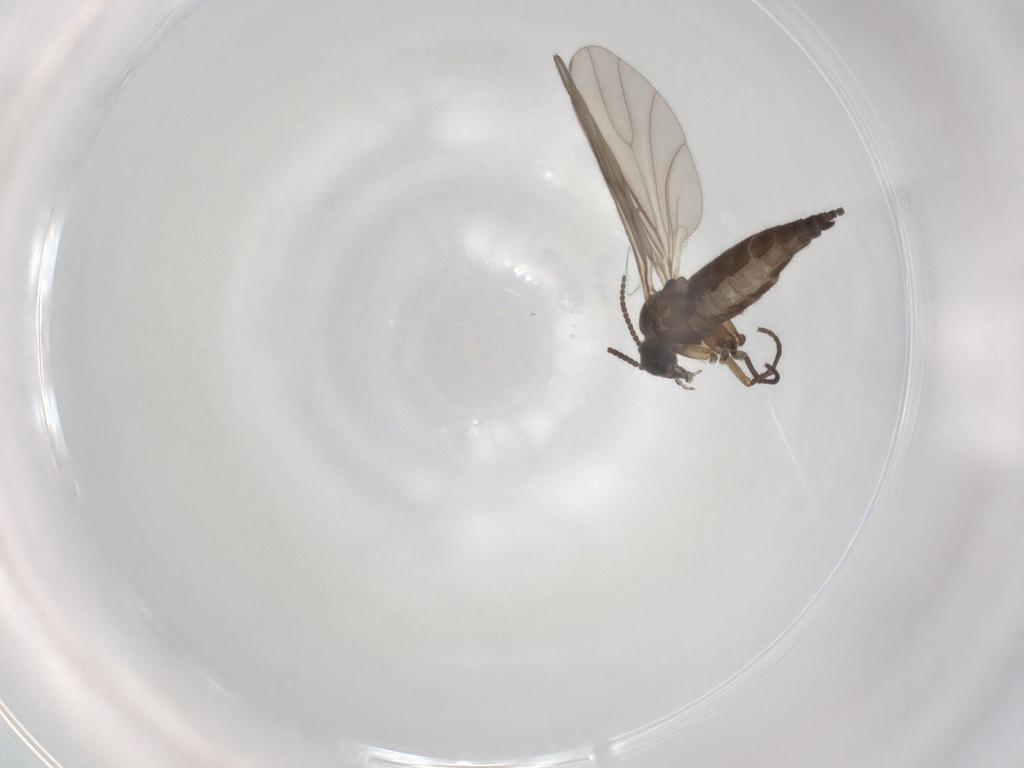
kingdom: Animalia
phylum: Arthropoda
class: Insecta
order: Diptera
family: Sciaridae
